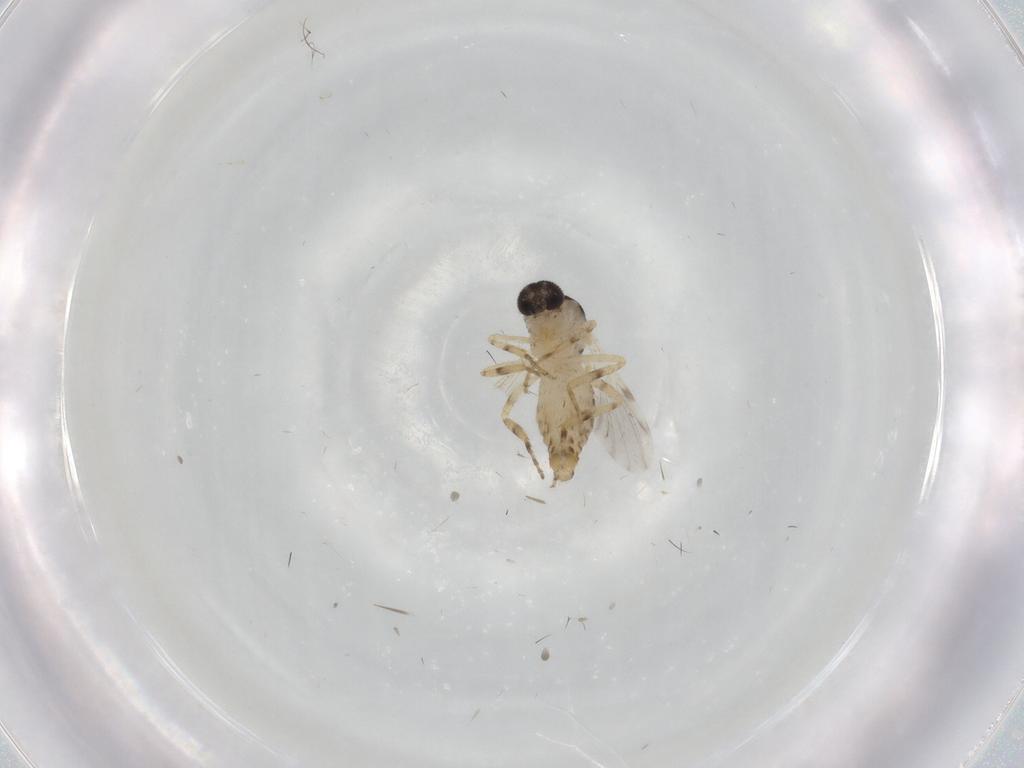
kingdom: Animalia
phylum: Arthropoda
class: Insecta
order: Diptera
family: Ceratopogonidae
